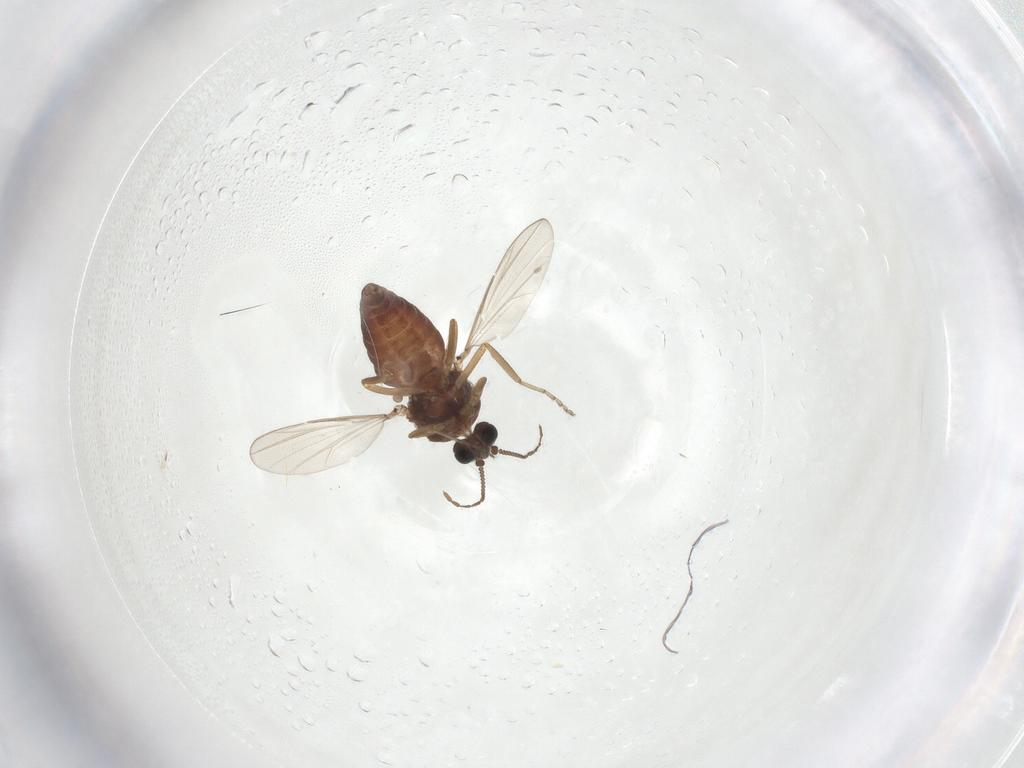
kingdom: Animalia
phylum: Arthropoda
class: Insecta
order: Diptera
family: Ceratopogonidae
